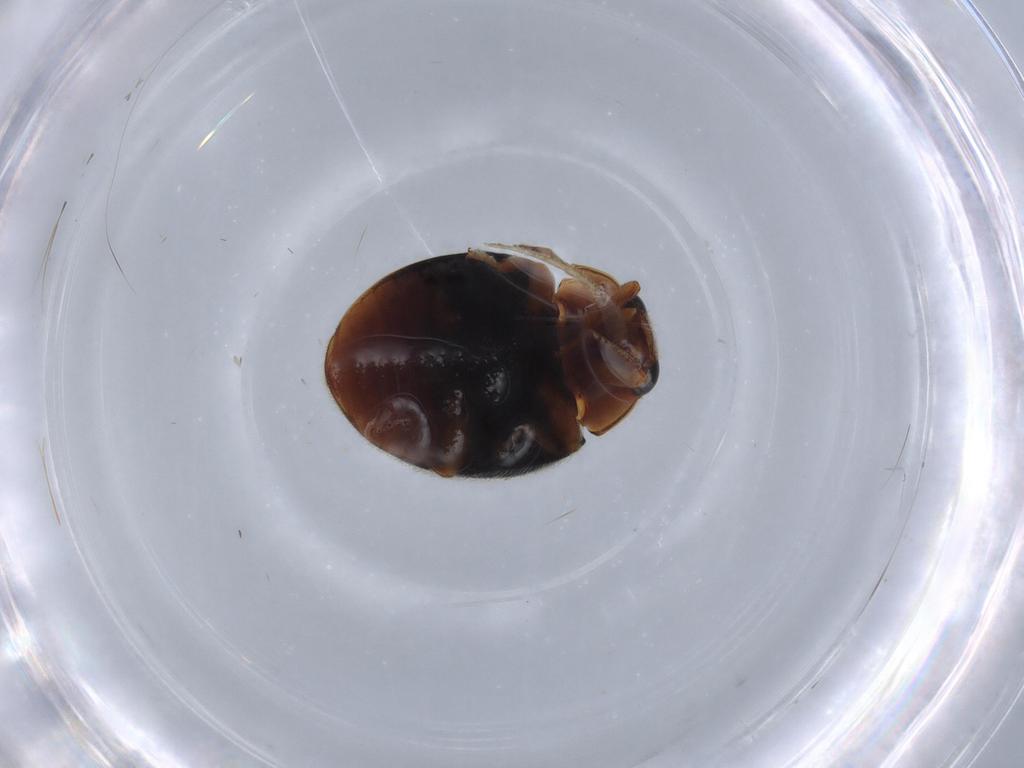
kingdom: Animalia
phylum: Arthropoda
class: Insecta
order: Coleoptera
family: Coccinellidae
